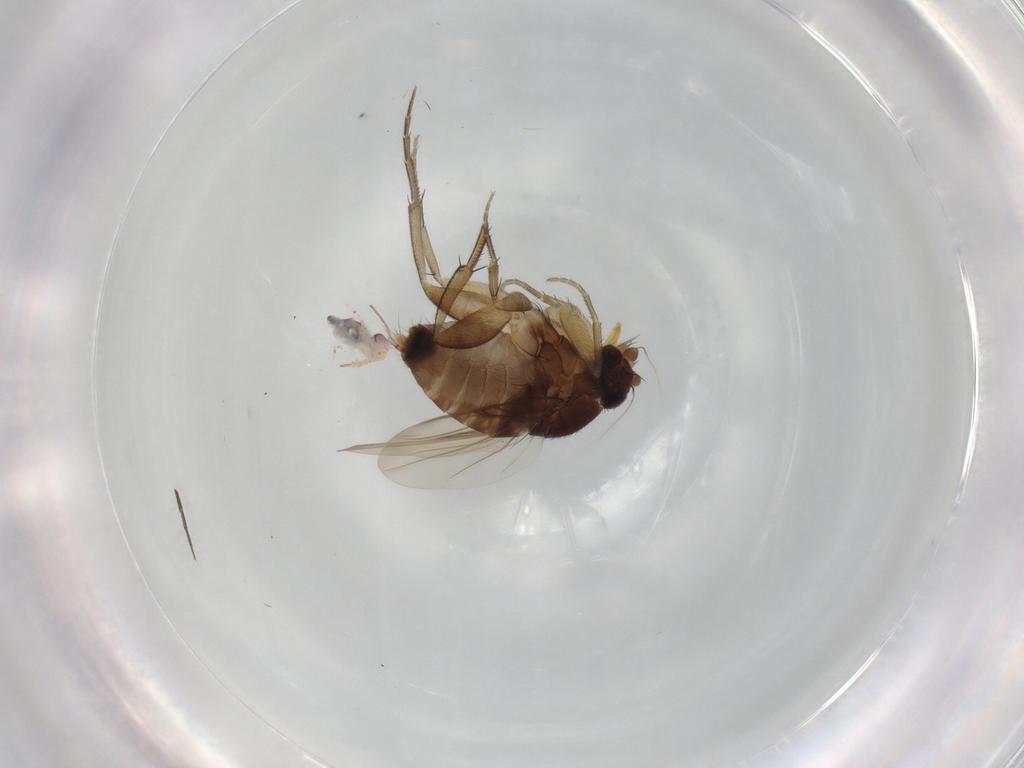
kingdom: Animalia
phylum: Arthropoda
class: Insecta
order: Diptera
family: Phoridae
